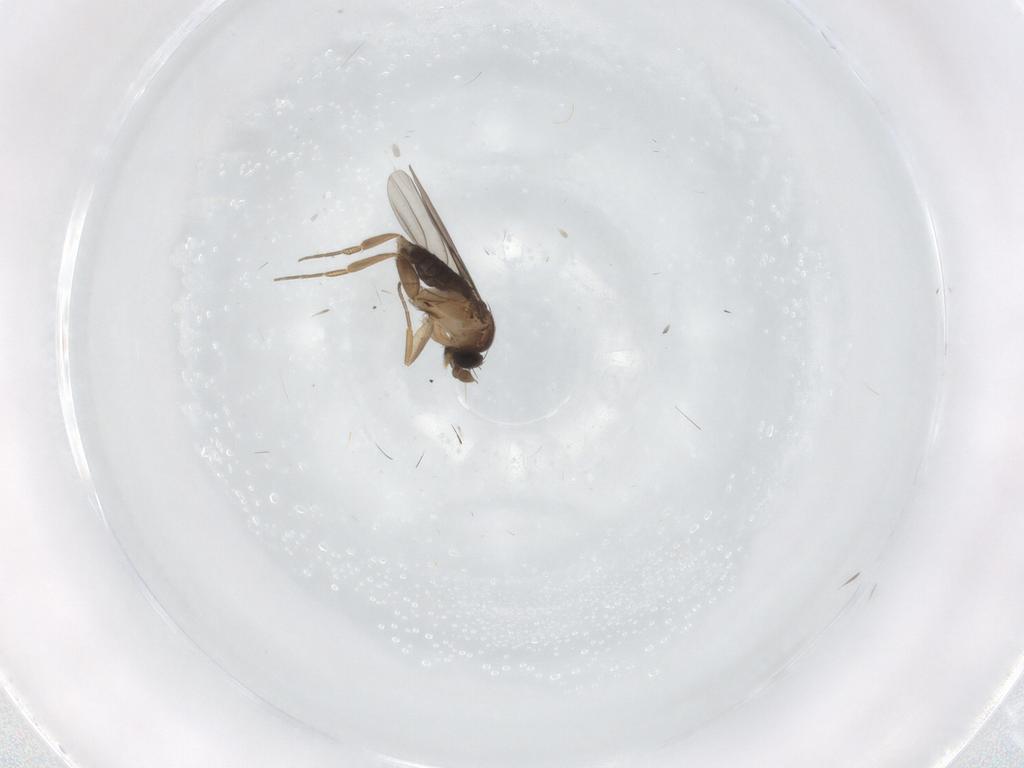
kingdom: Animalia
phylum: Arthropoda
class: Insecta
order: Diptera
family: Phoridae
